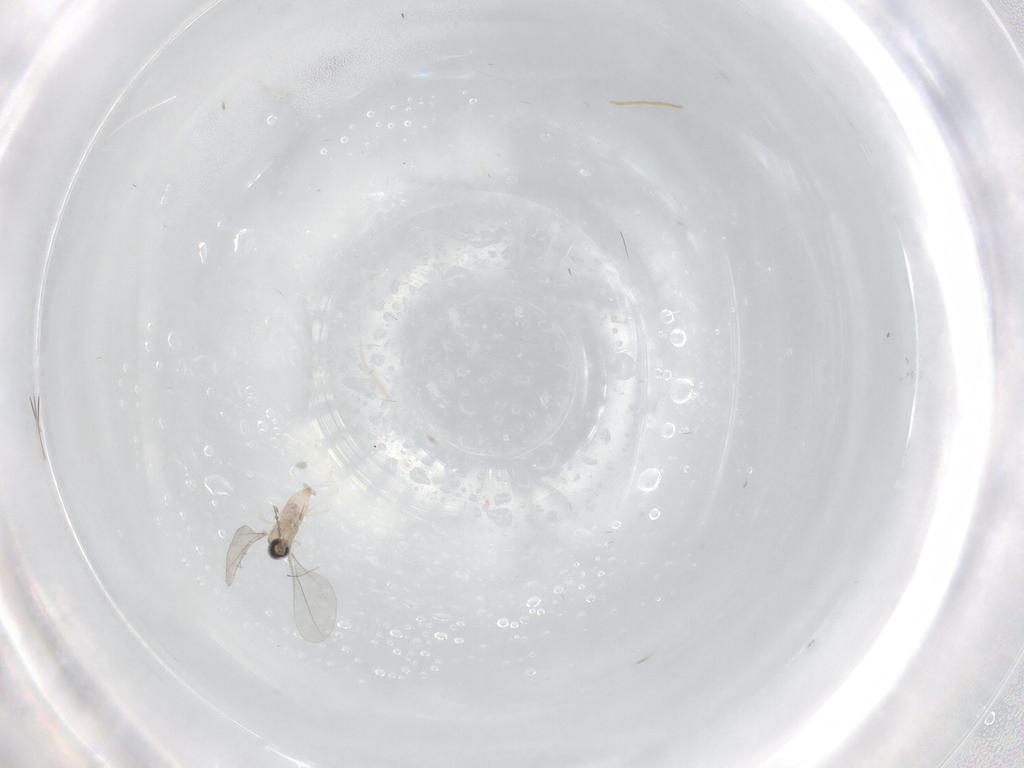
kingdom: Animalia
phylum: Arthropoda
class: Insecta
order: Diptera
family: Cecidomyiidae
